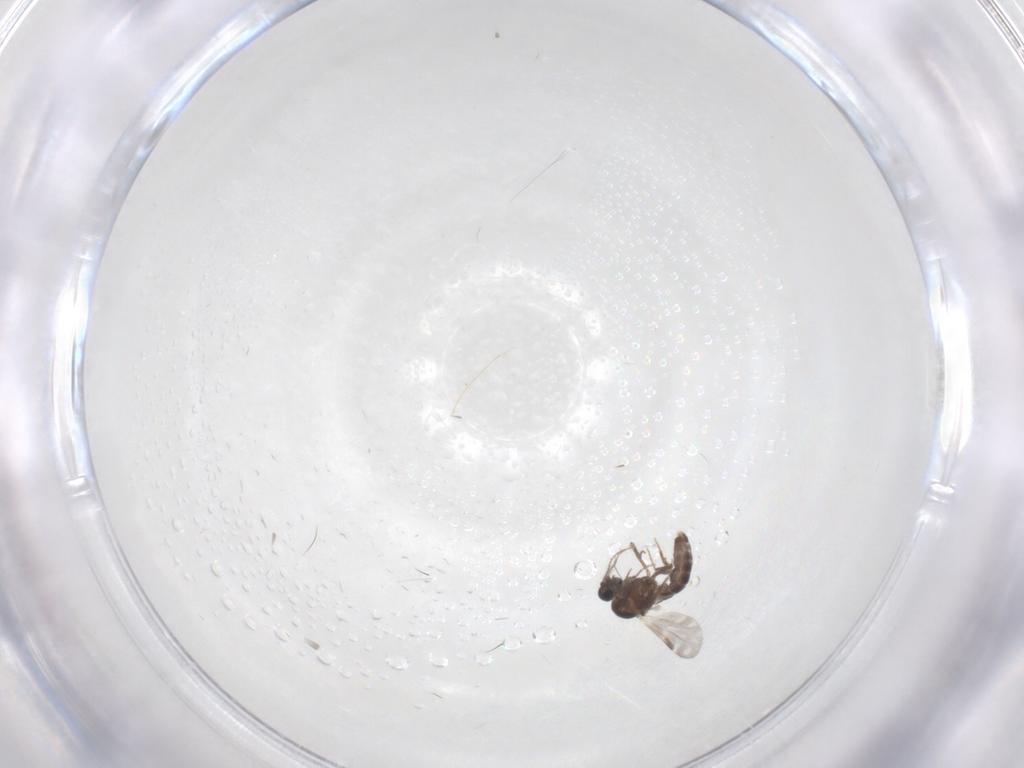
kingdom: Animalia
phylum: Arthropoda
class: Insecta
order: Diptera
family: Ceratopogonidae
